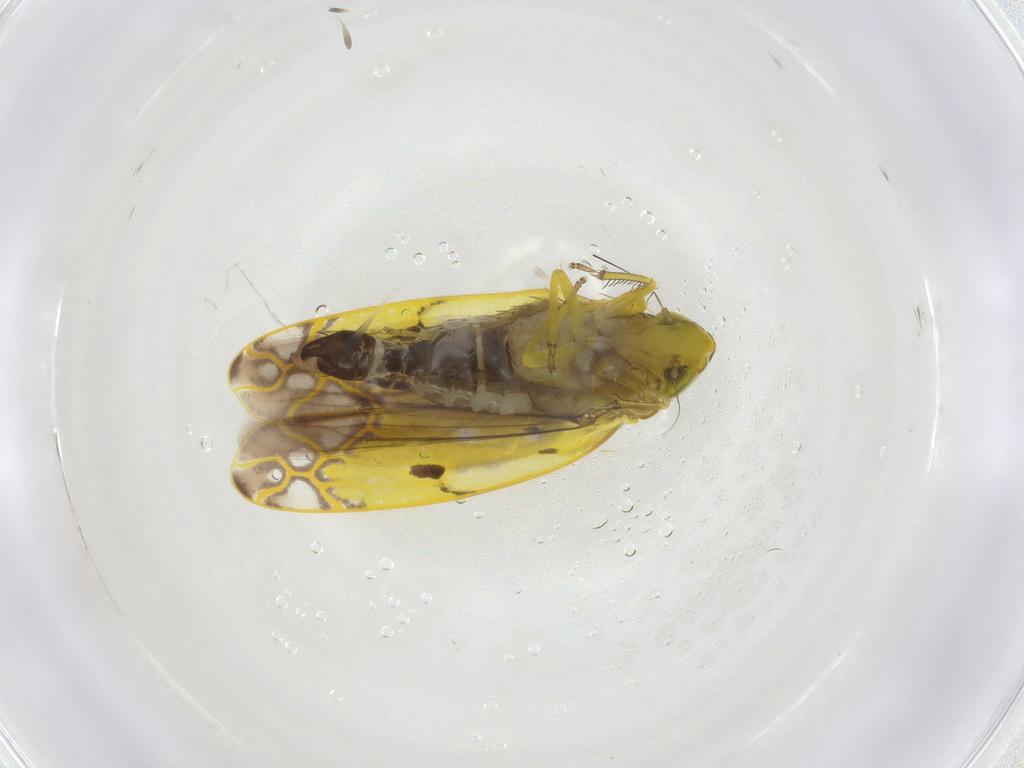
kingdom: Animalia
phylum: Arthropoda
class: Insecta
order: Hemiptera
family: Cicadellidae
